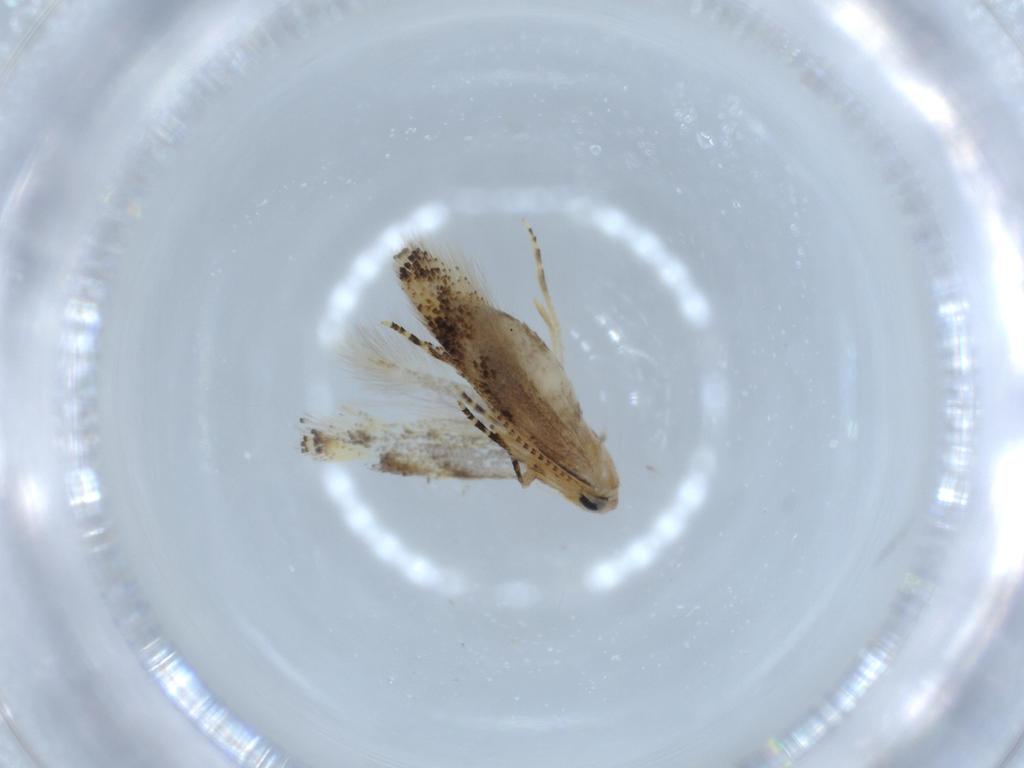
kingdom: Animalia
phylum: Arthropoda
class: Insecta
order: Lepidoptera
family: Bucculatricidae
